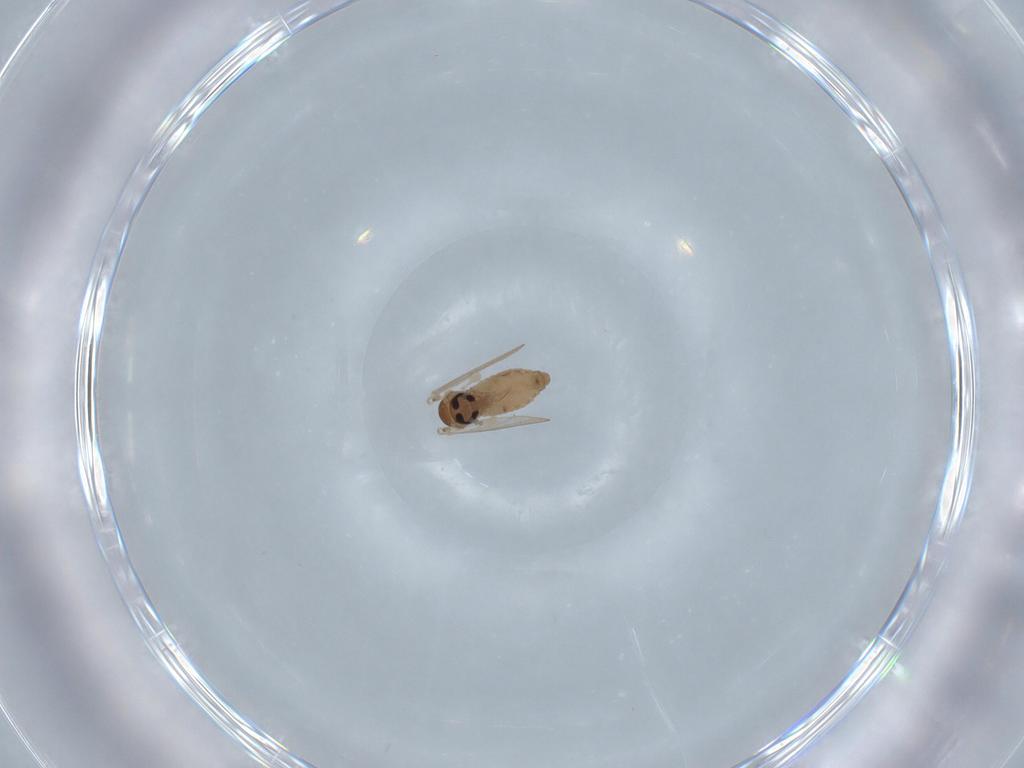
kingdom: Animalia
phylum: Arthropoda
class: Insecta
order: Diptera
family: Psychodidae
